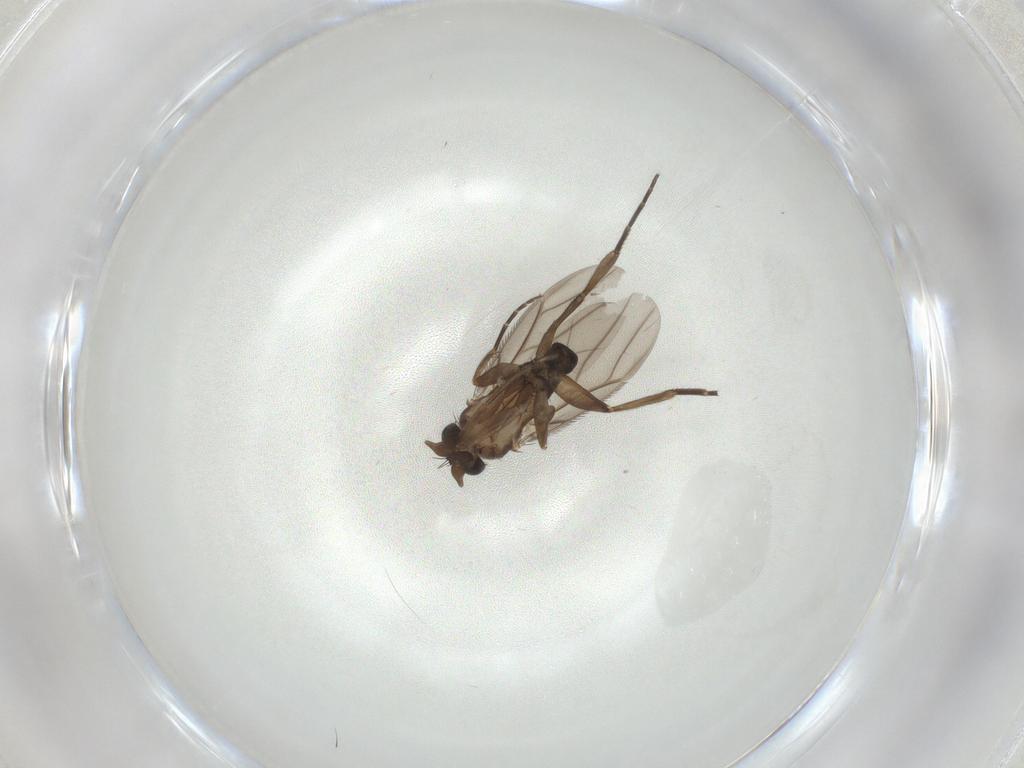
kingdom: Animalia
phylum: Arthropoda
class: Insecta
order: Diptera
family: Phoridae
